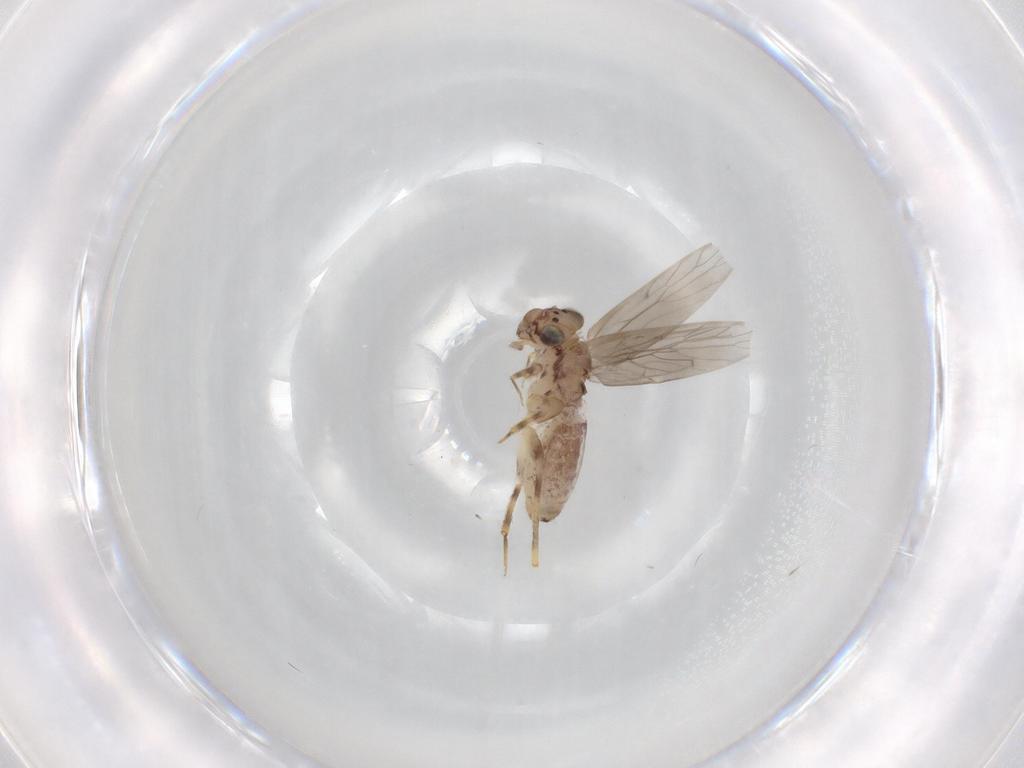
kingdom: Animalia
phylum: Arthropoda
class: Insecta
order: Psocodea
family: Lepidopsocidae
